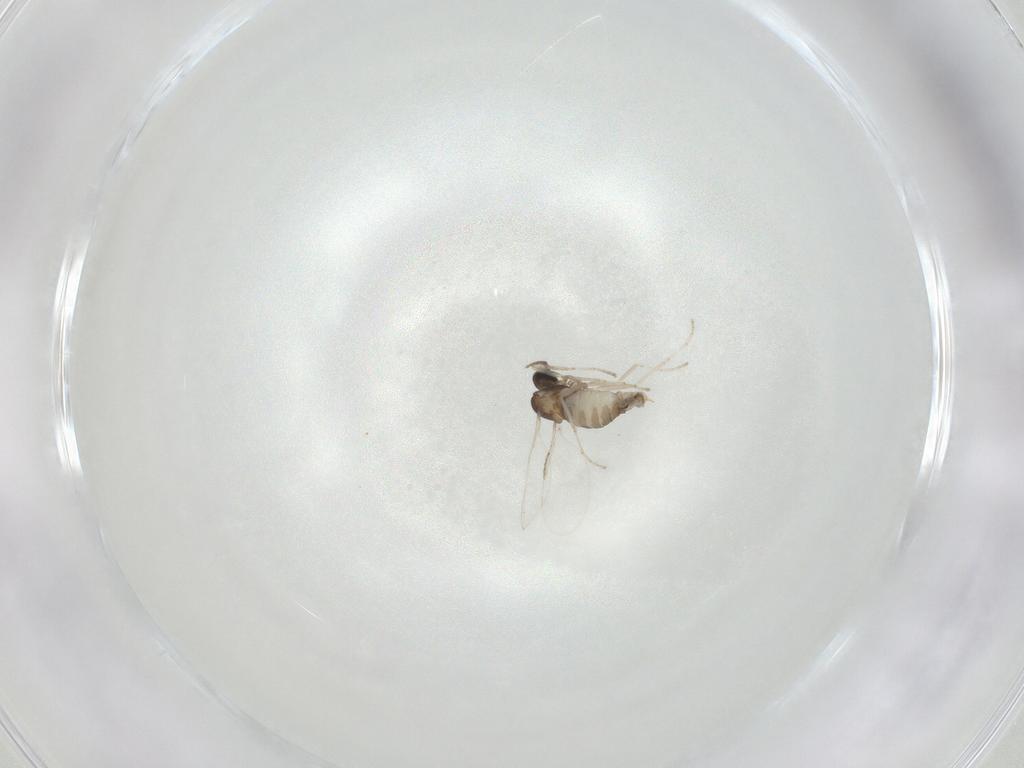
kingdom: Animalia
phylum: Arthropoda
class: Insecta
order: Diptera
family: Cecidomyiidae
